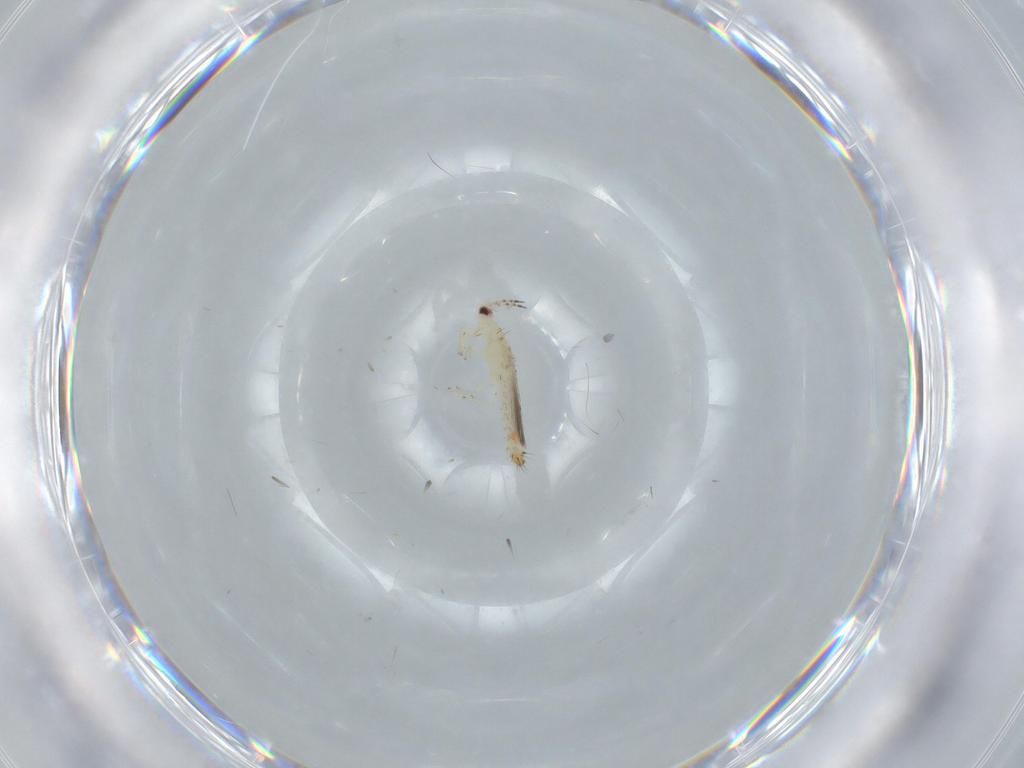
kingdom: Animalia
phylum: Arthropoda
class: Insecta
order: Thysanoptera
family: Thripidae
